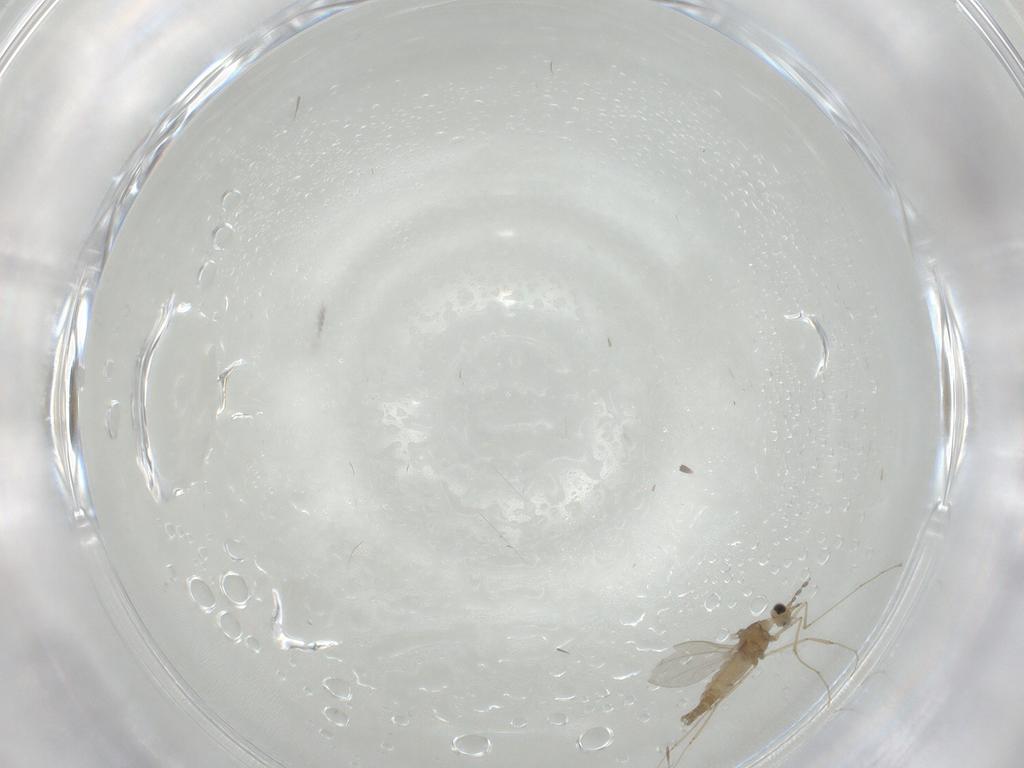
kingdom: Animalia
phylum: Arthropoda
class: Insecta
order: Diptera
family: Cecidomyiidae
